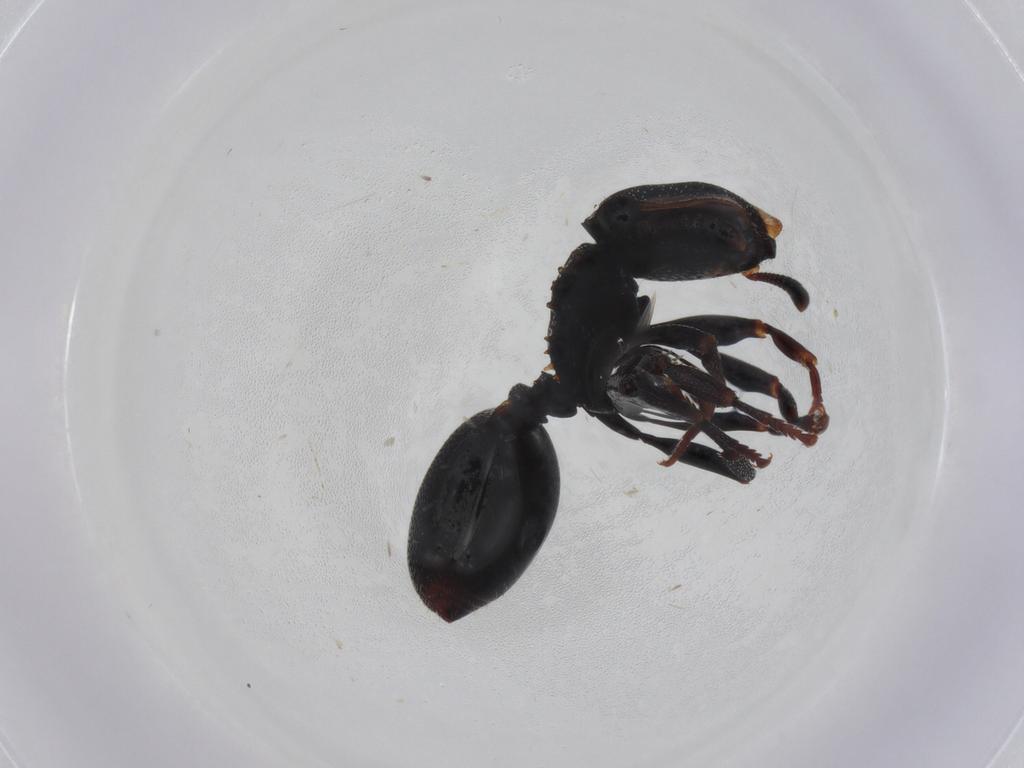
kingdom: Animalia
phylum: Arthropoda
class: Insecta
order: Hymenoptera
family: Formicidae
